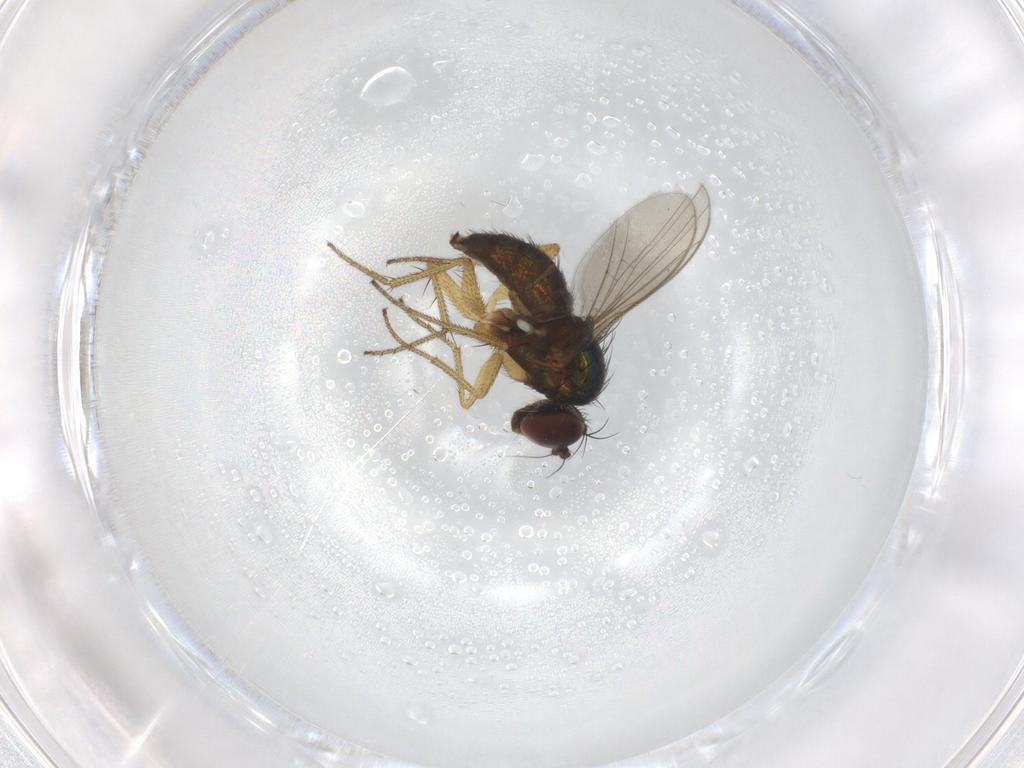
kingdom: Animalia
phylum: Arthropoda
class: Insecta
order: Diptera
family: Dolichopodidae
